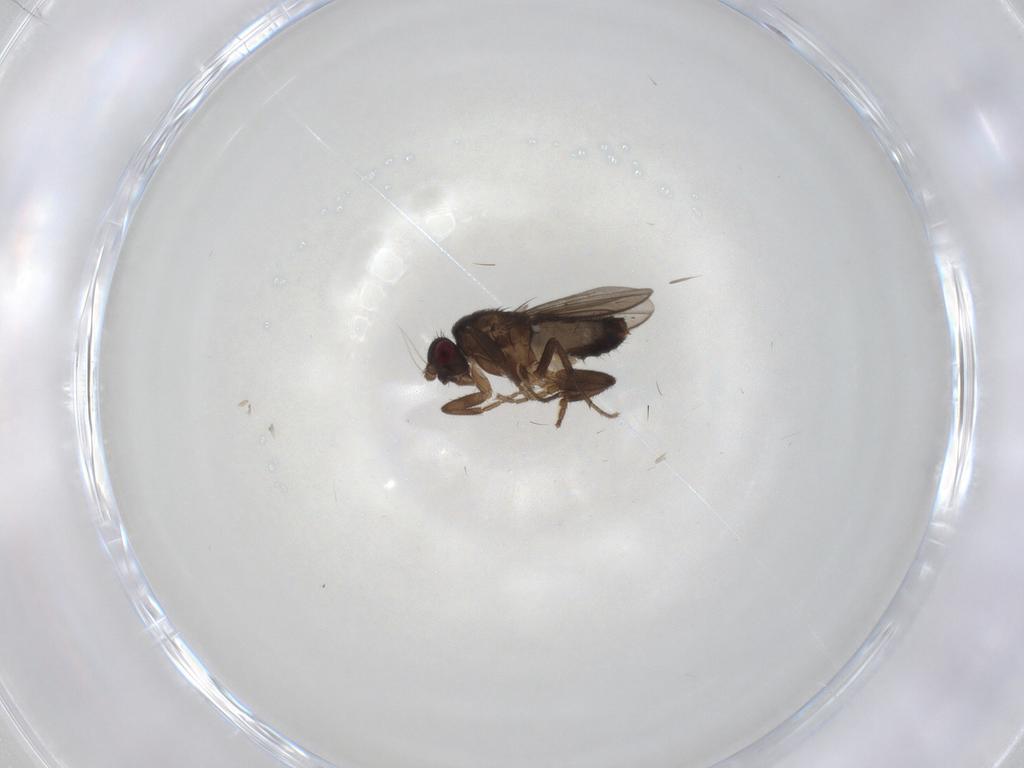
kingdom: Animalia
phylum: Arthropoda
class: Insecta
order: Diptera
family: Sphaeroceridae
